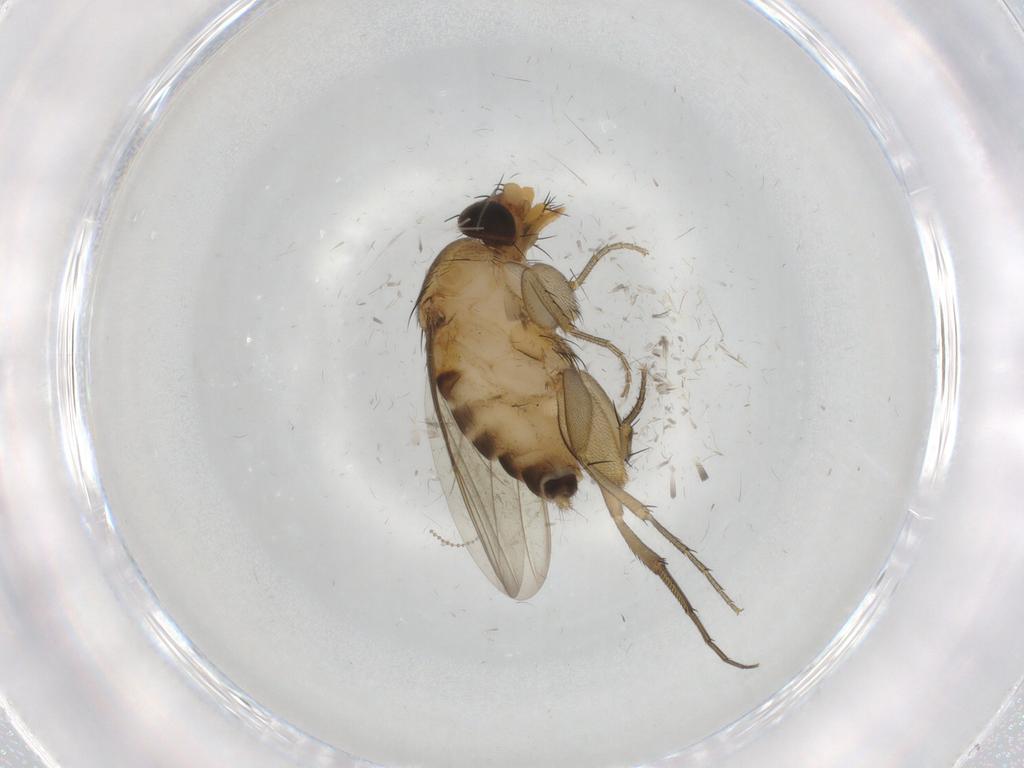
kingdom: Animalia
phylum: Arthropoda
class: Insecta
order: Diptera
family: Phoridae
